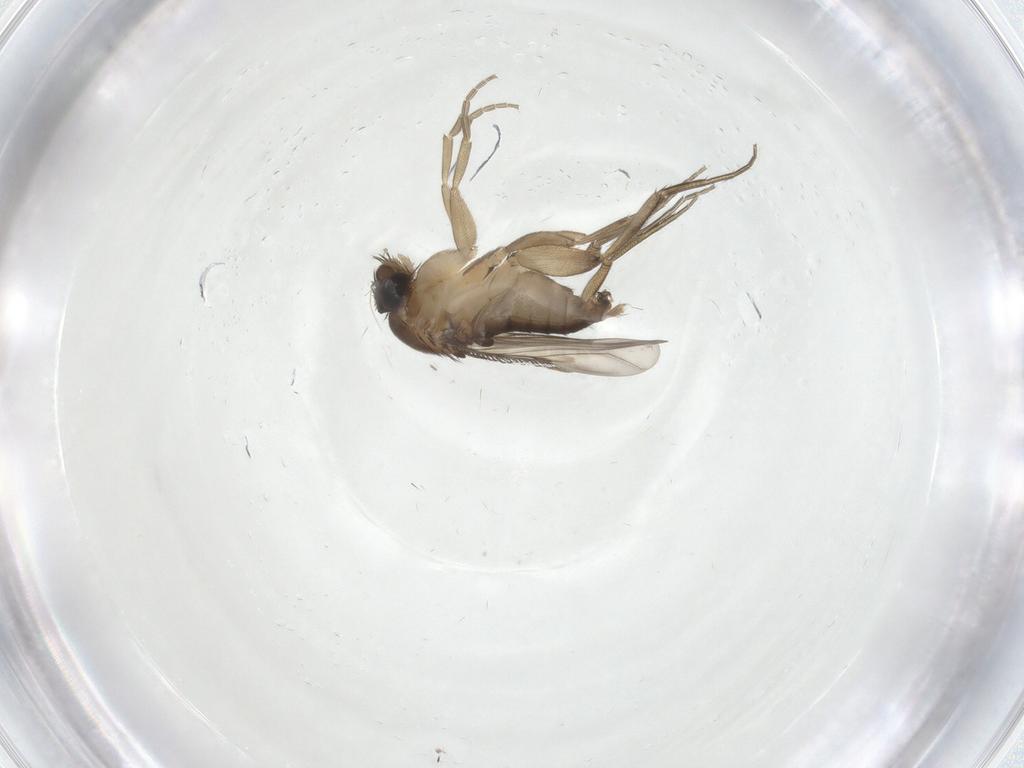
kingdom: Animalia
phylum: Arthropoda
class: Insecta
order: Diptera
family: Phoridae
